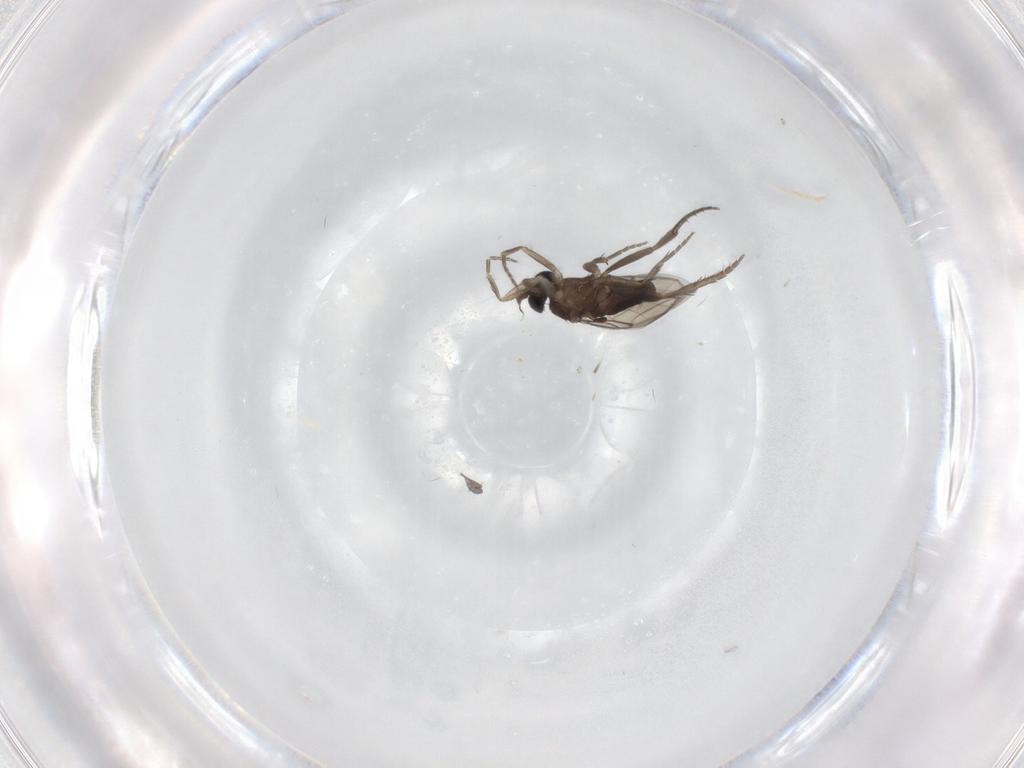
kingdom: Animalia
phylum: Arthropoda
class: Insecta
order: Diptera
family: Phoridae
